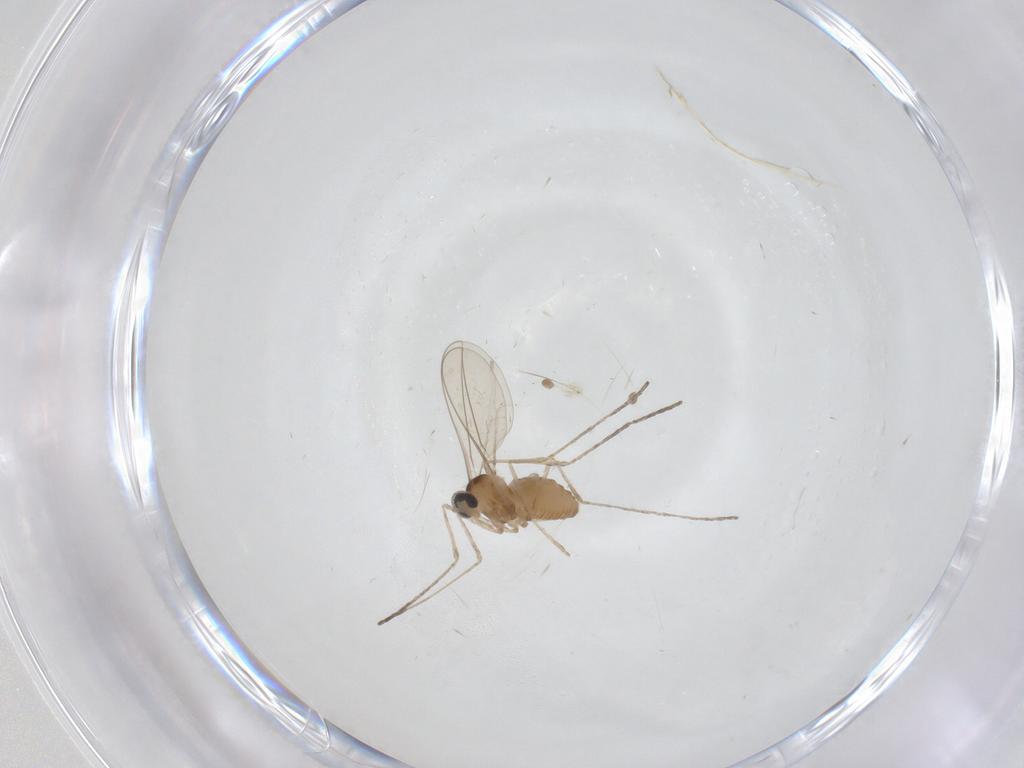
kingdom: Animalia
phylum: Arthropoda
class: Insecta
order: Diptera
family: Cecidomyiidae
